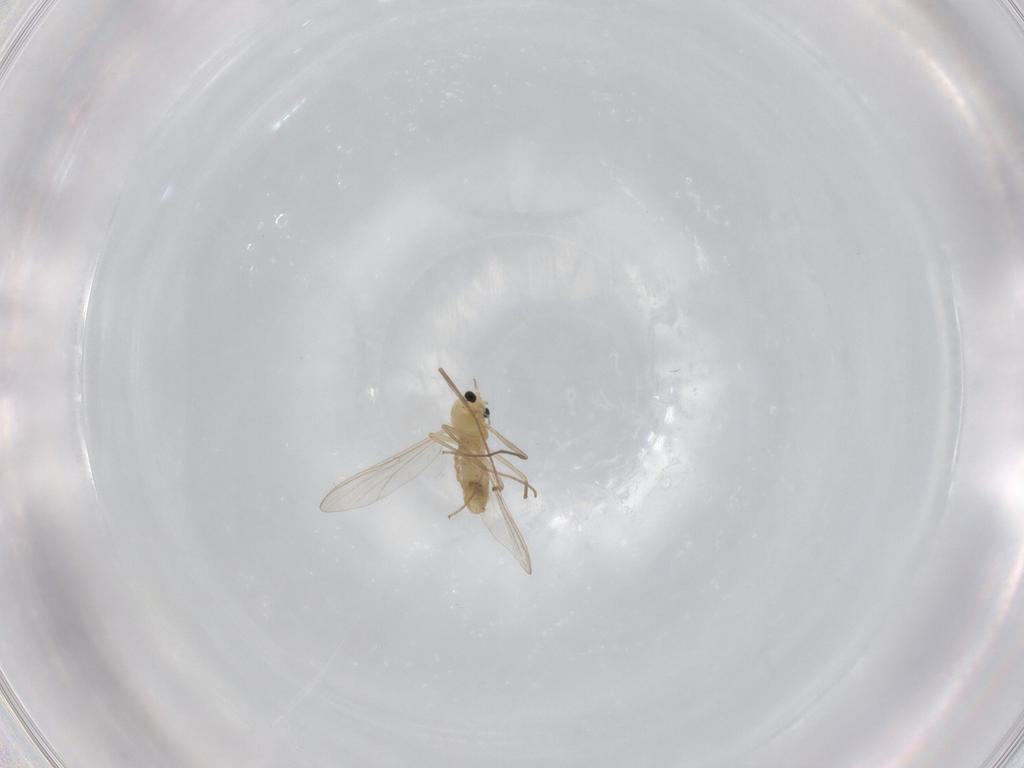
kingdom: Animalia
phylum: Arthropoda
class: Insecta
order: Diptera
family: Chironomidae
